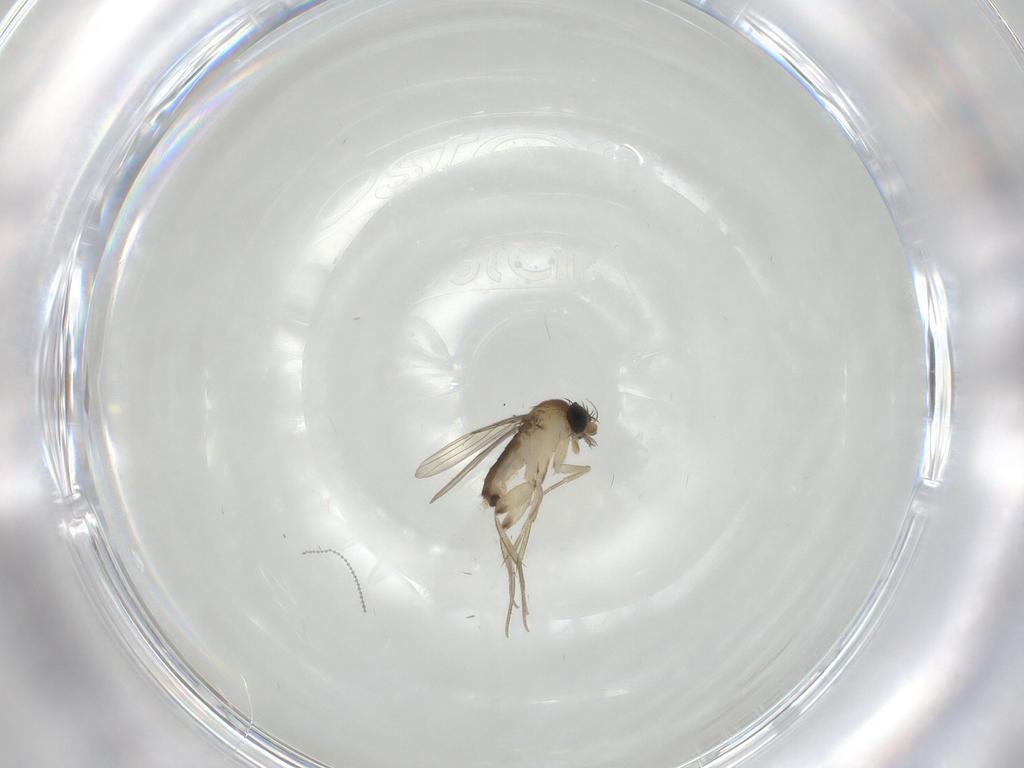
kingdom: Animalia
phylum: Arthropoda
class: Insecta
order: Diptera
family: Phoridae
